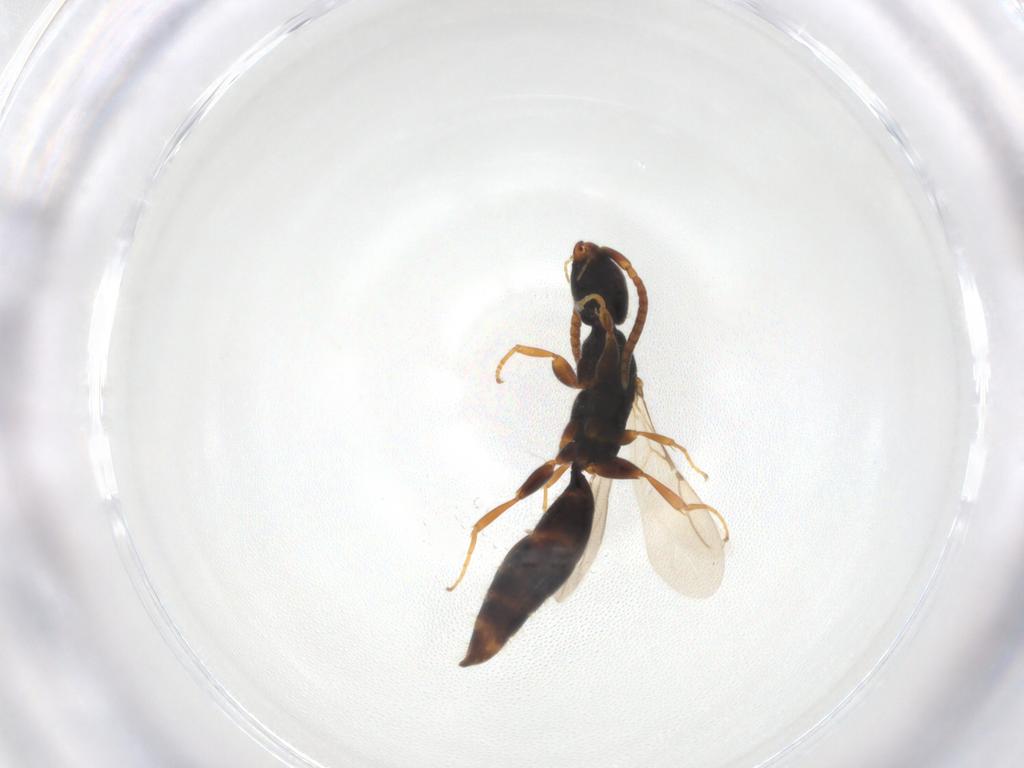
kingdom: Animalia
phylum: Arthropoda
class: Insecta
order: Hymenoptera
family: Bethylidae
